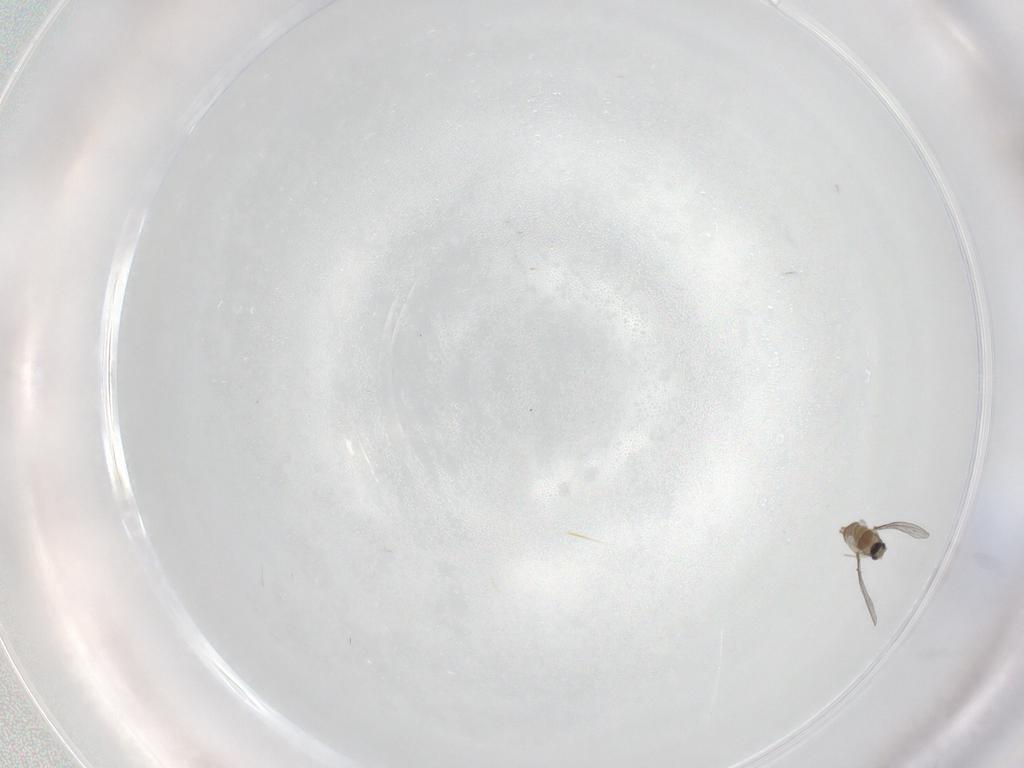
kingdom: Animalia
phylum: Arthropoda
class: Insecta
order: Diptera
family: Cecidomyiidae
